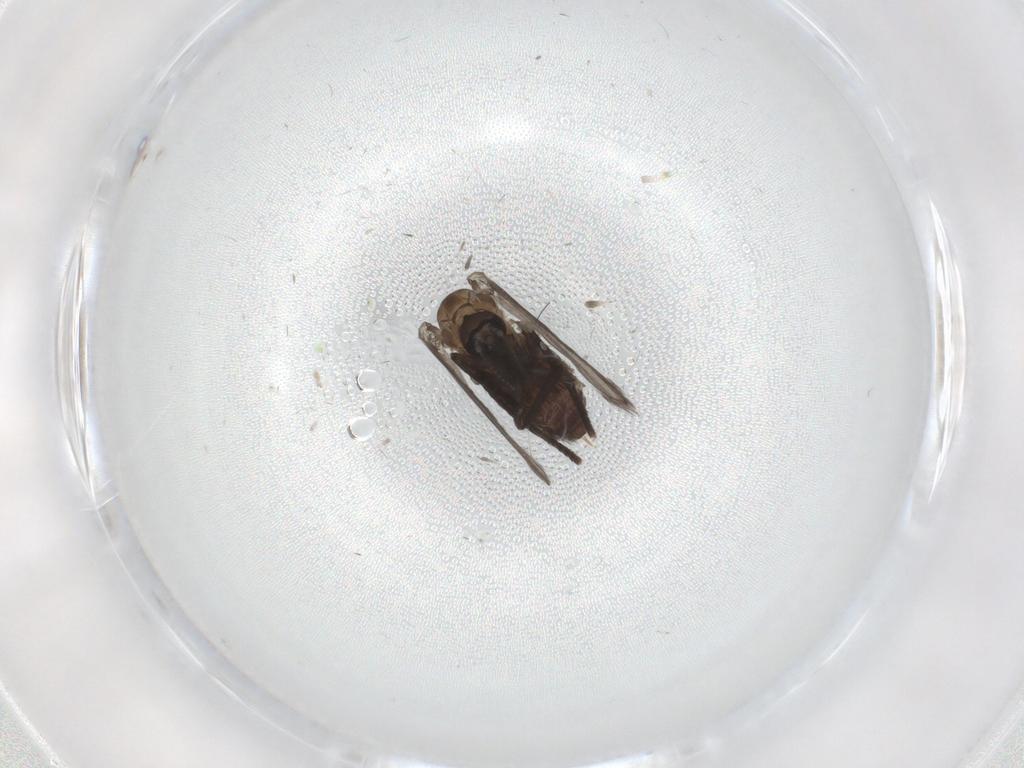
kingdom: Animalia
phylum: Arthropoda
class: Insecta
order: Diptera
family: Psychodidae
